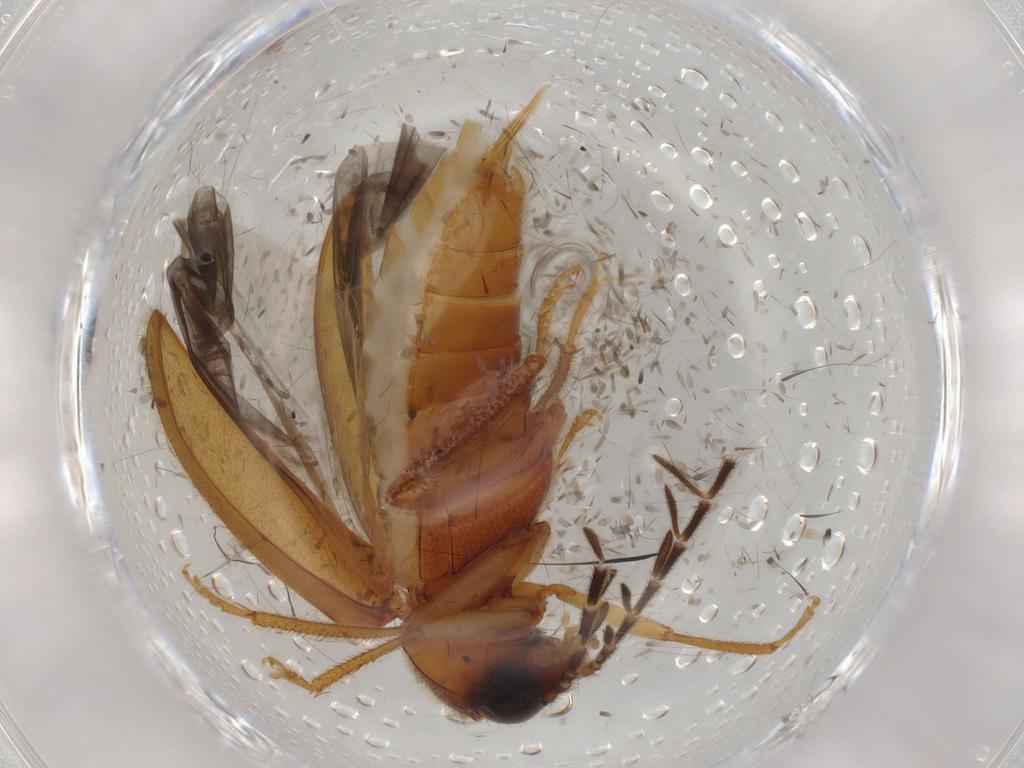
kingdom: Animalia
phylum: Arthropoda
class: Insecta
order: Coleoptera
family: Ptilodactylidae
